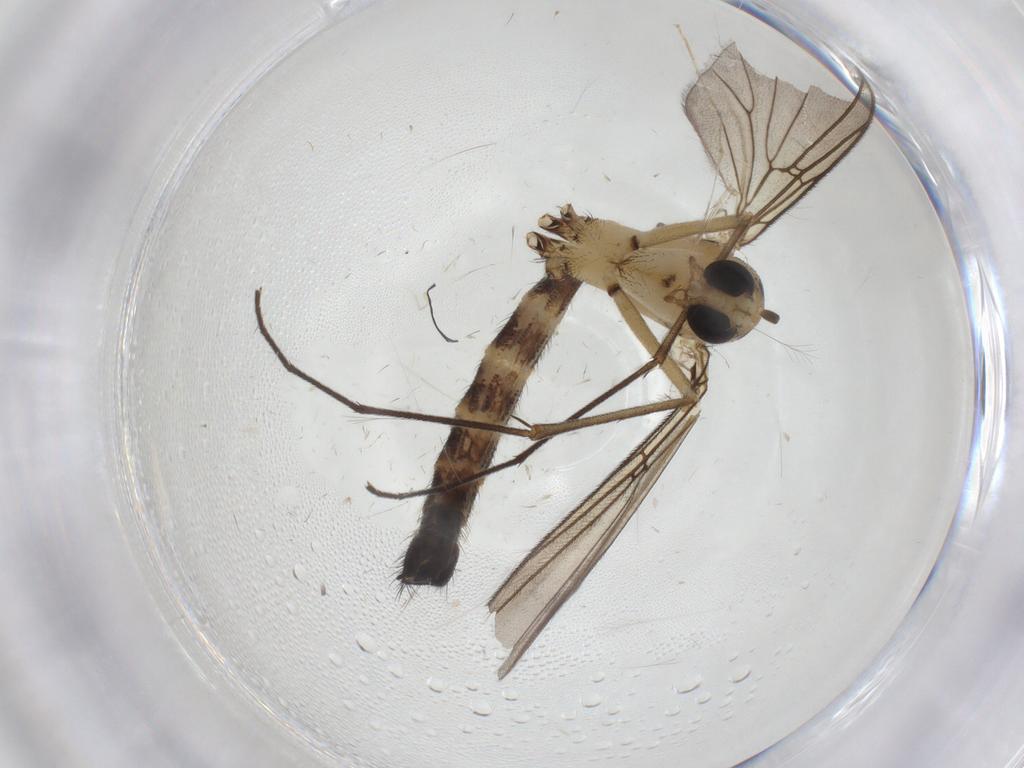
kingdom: Animalia
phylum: Arthropoda
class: Insecta
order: Diptera
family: Mycetophilidae
